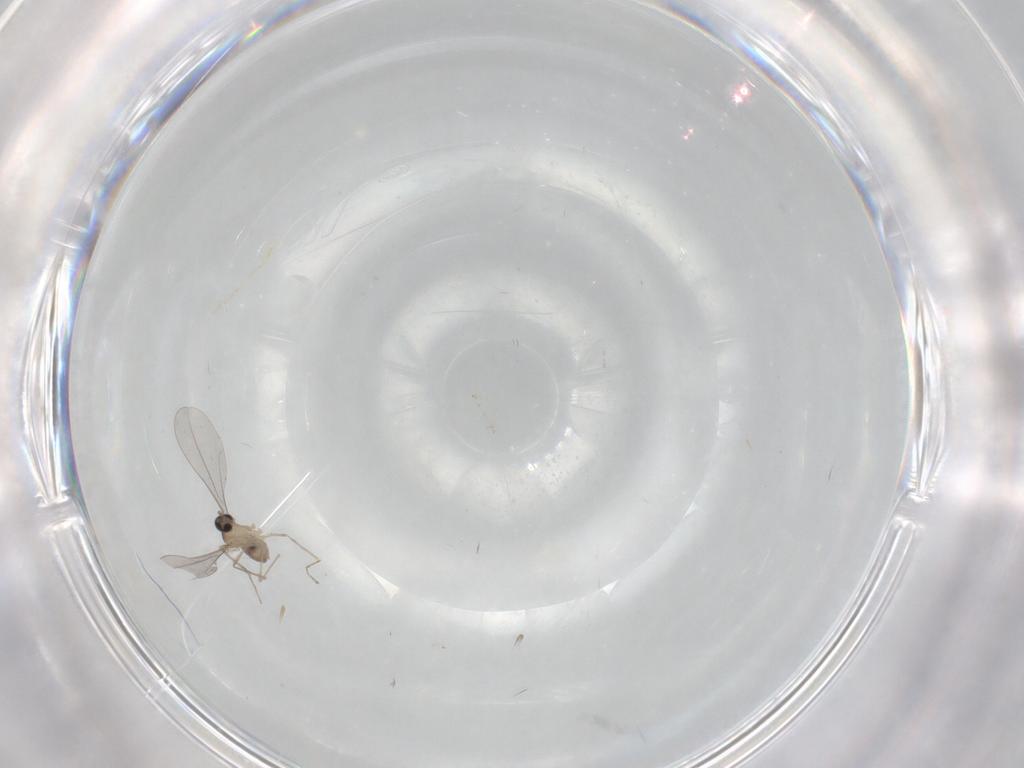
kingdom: Animalia
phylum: Arthropoda
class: Insecta
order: Diptera
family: Cecidomyiidae
